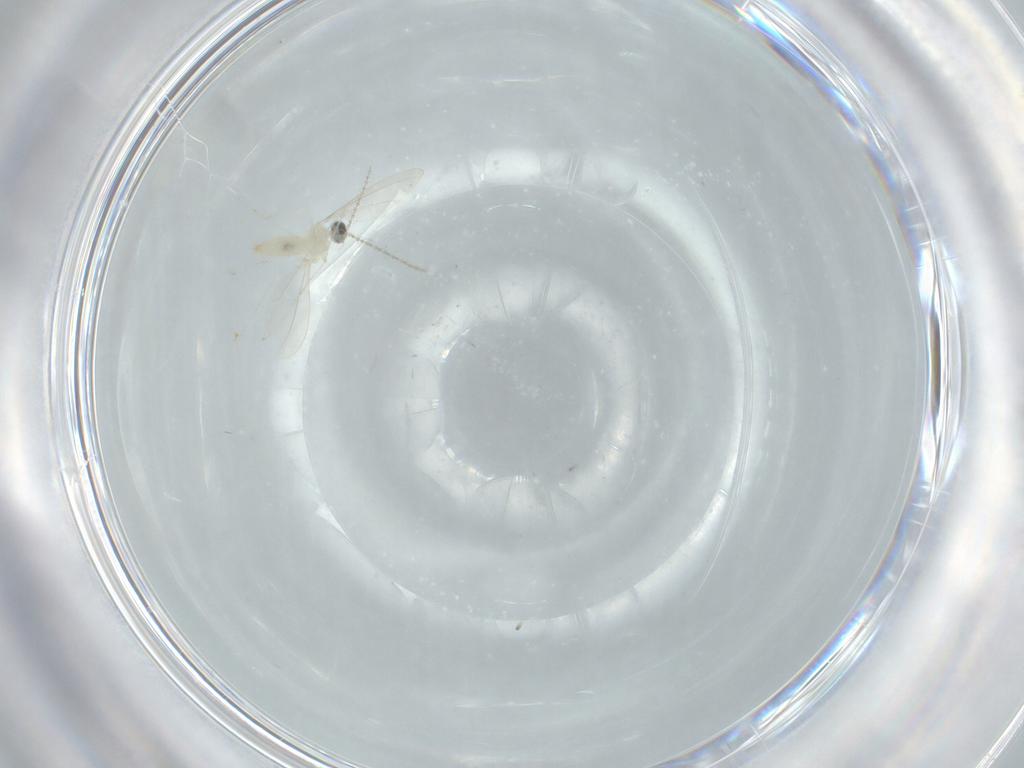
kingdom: Animalia
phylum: Arthropoda
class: Insecta
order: Diptera
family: Cecidomyiidae
